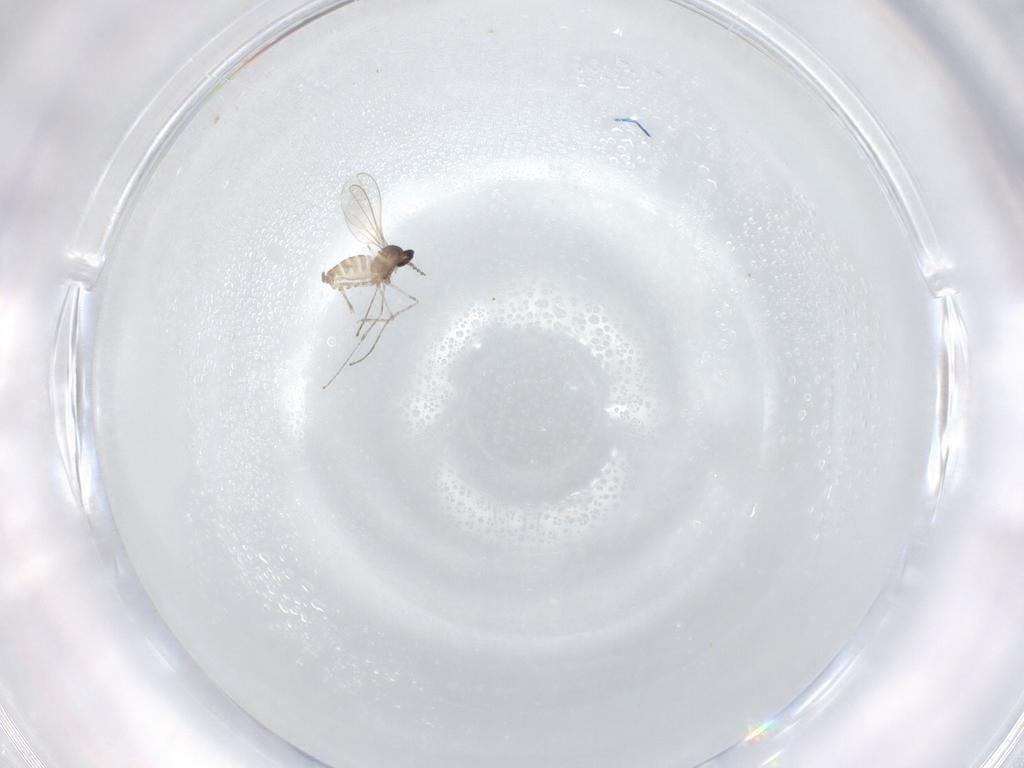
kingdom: Animalia
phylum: Arthropoda
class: Insecta
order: Diptera
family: Cecidomyiidae
